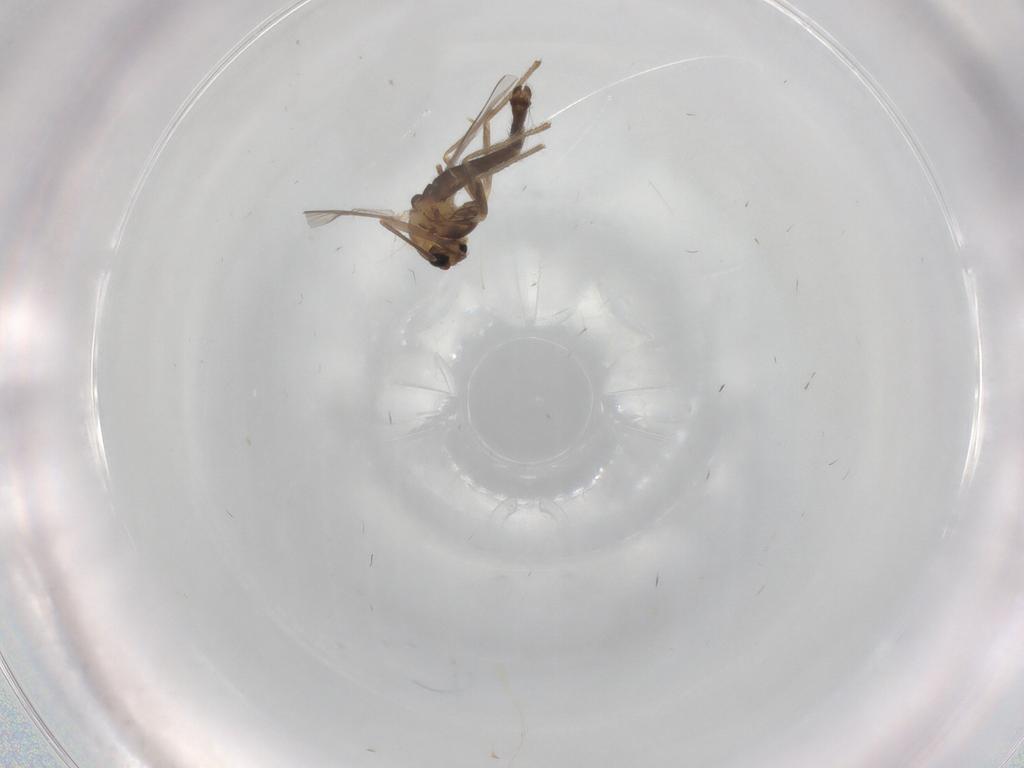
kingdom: Animalia
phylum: Arthropoda
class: Insecta
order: Diptera
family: Chironomidae
